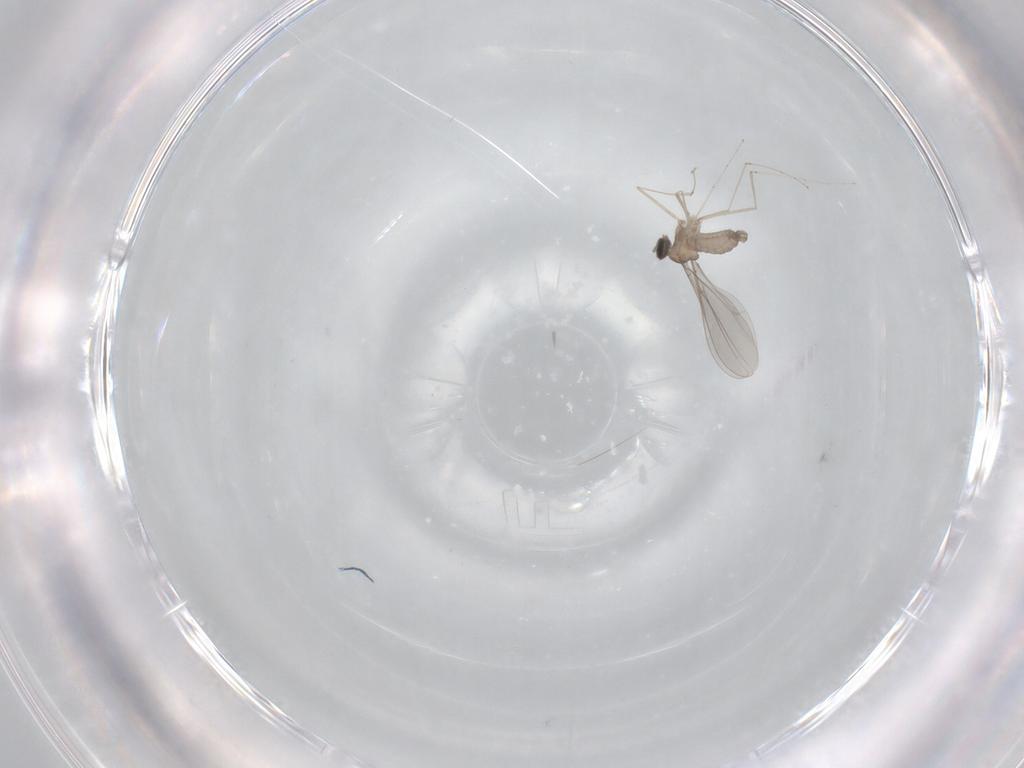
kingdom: Animalia
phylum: Arthropoda
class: Insecta
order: Diptera
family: Cecidomyiidae
